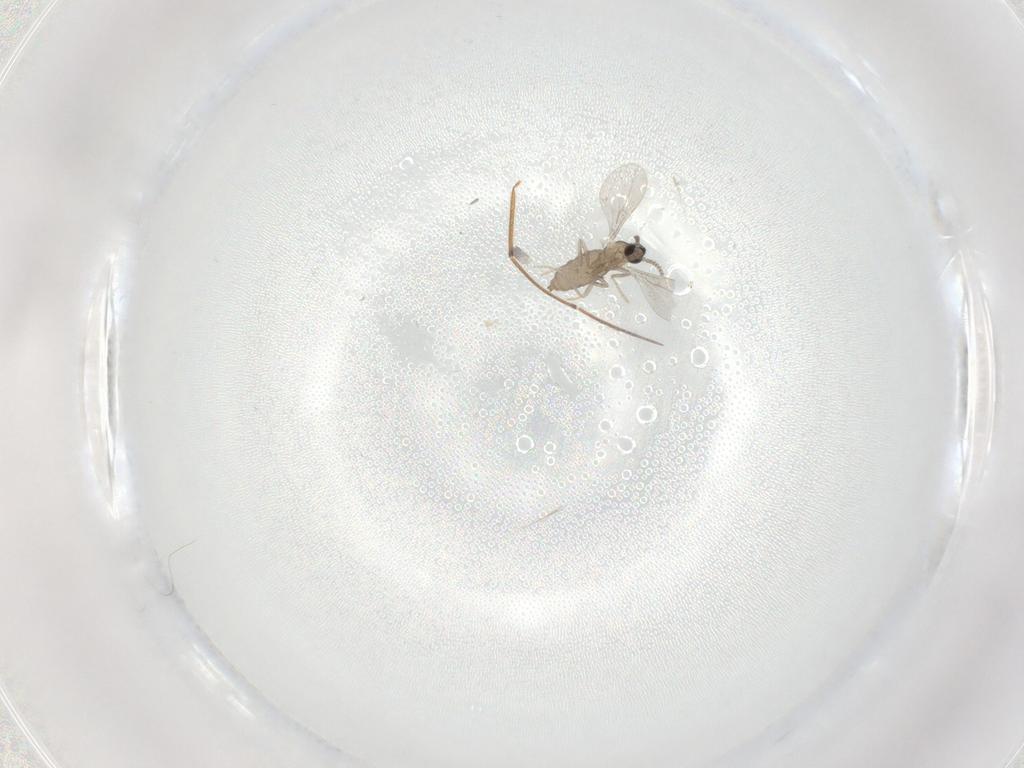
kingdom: Animalia
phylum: Arthropoda
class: Insecta
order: Diptera
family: Cecidomyiidae
